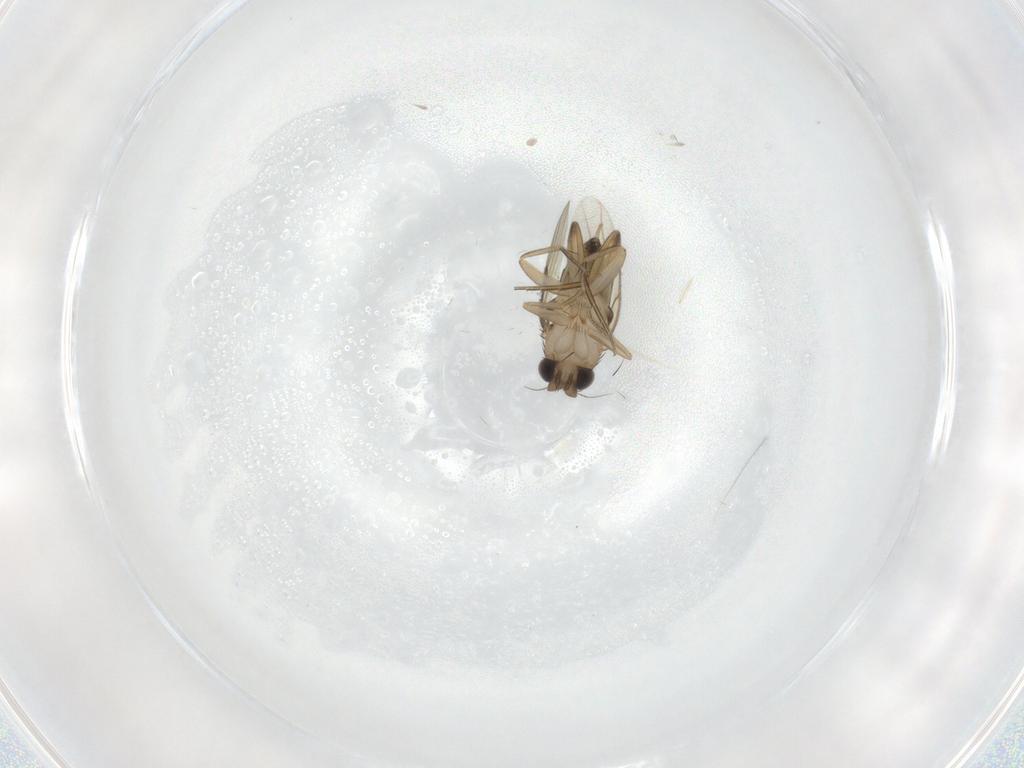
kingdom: Animalia
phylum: Arthropoda
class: Insecta
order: Diptera
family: Phoridae
